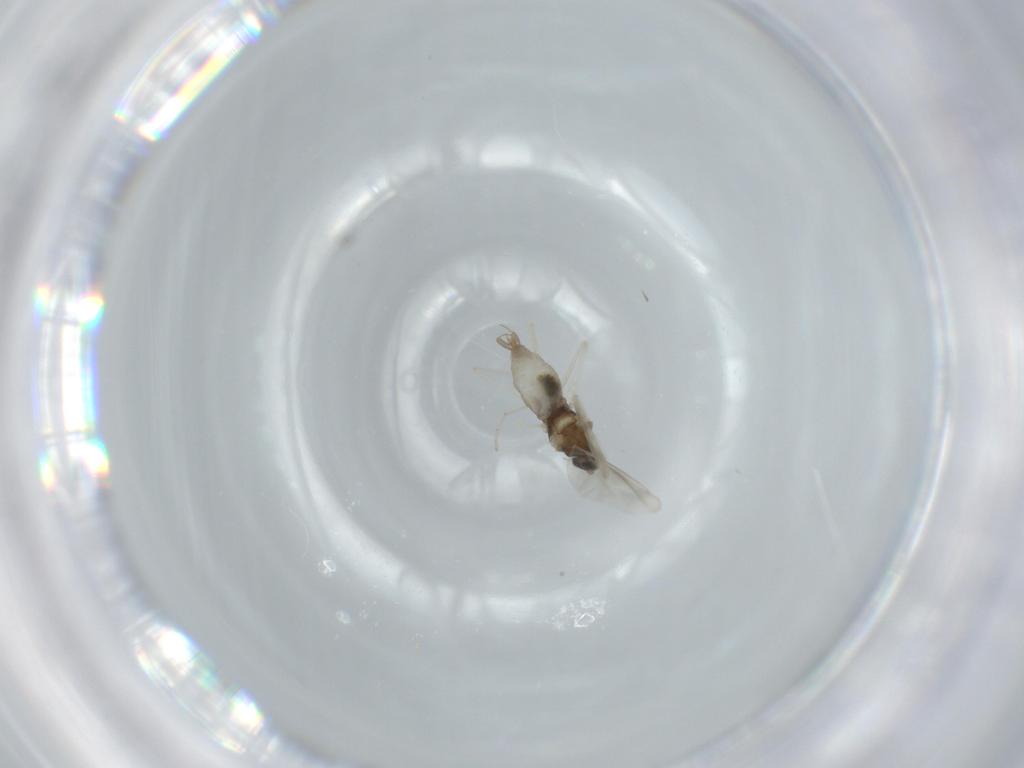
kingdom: Animalia
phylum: Arthropoda
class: Insecta
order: Diptera
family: Cecidomyiidae
